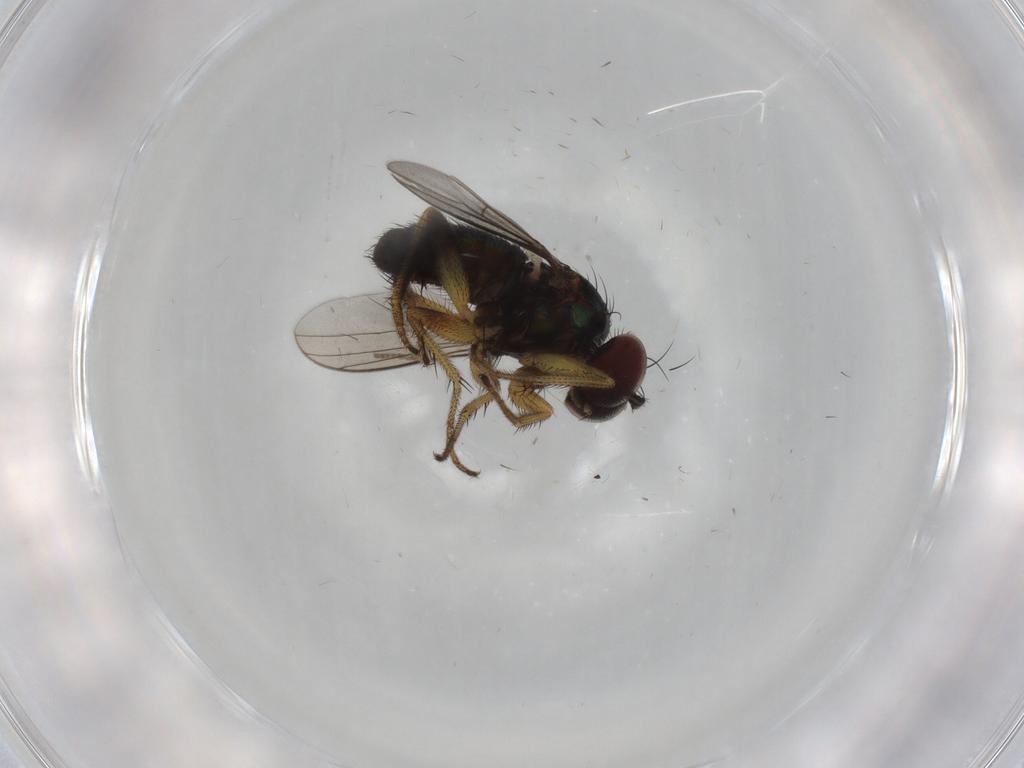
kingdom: Animalia
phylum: Arthropoda
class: Insecta
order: Diptera
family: Dolichopodidae
